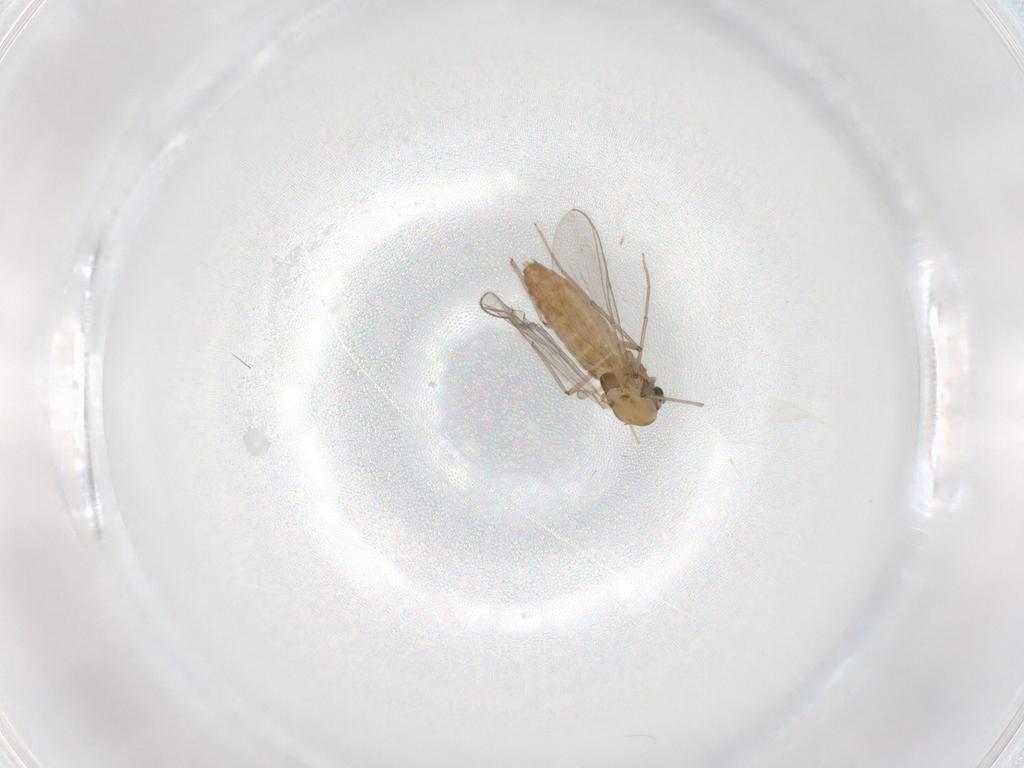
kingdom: Animalia
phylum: Arthropoda
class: Insecta
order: Diptera
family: Chironomidae
